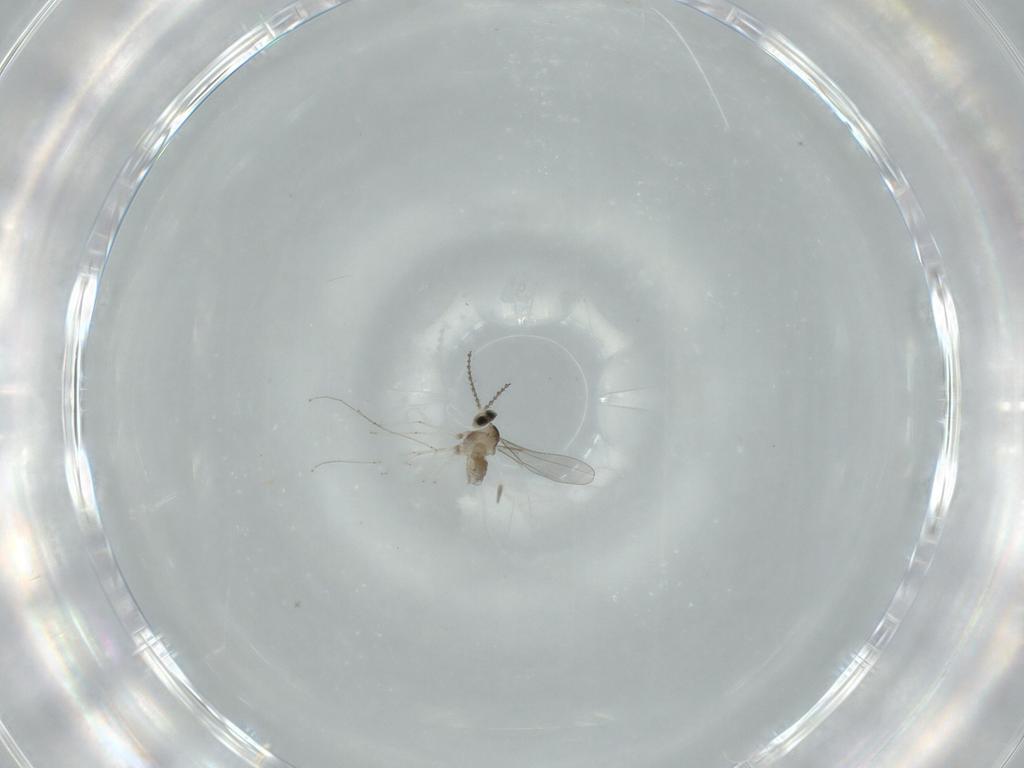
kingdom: Animalia
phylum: Arthropoda
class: Insecta
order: Diptera
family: Cecidomyiidae
